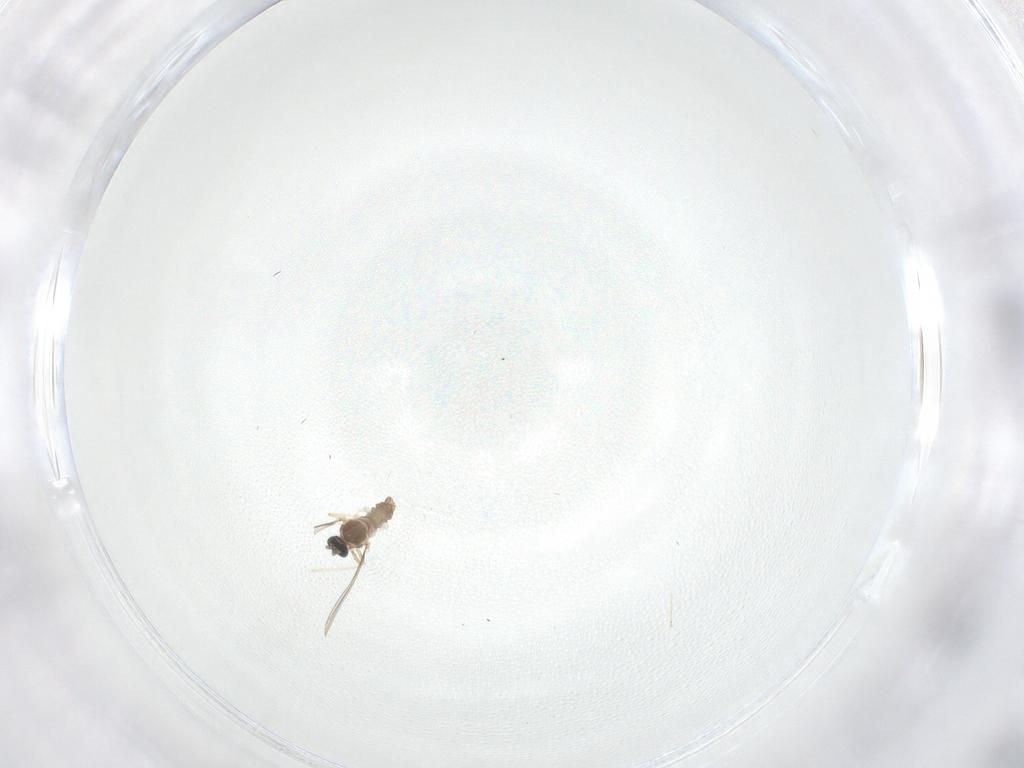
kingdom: Animalia
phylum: Arthropoda
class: Insecta
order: Diptera
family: Cecidomyiidae
